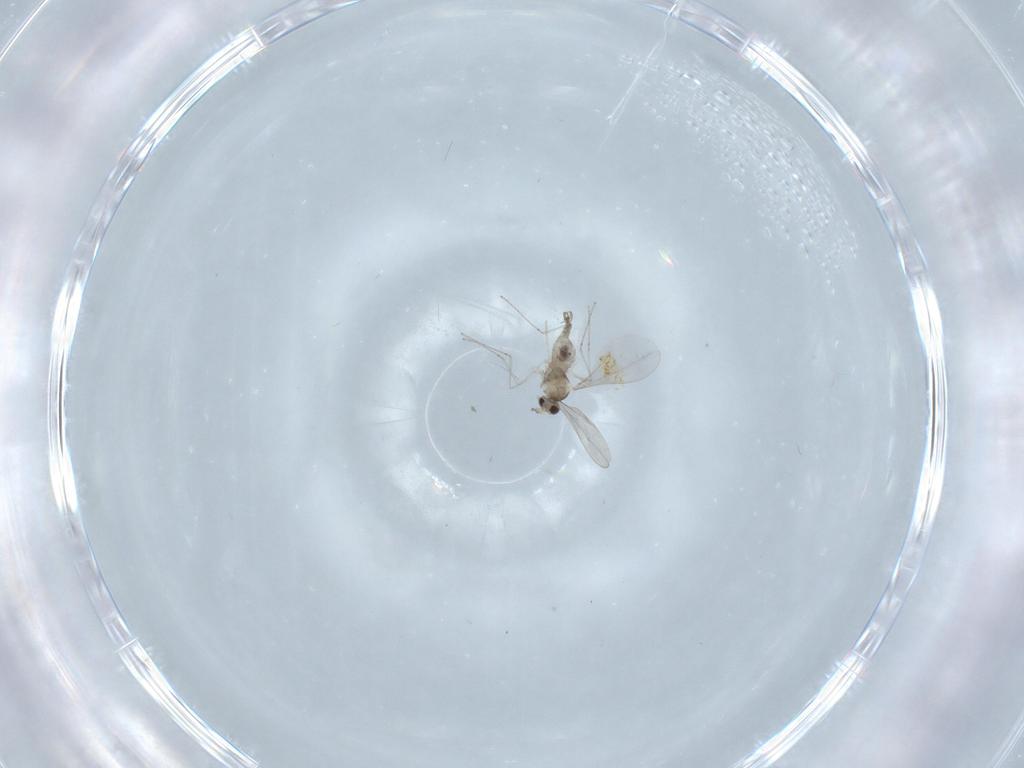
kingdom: Animalia
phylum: Arthropoda
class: Insecta
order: Diptera
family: Cecidomyiidae
